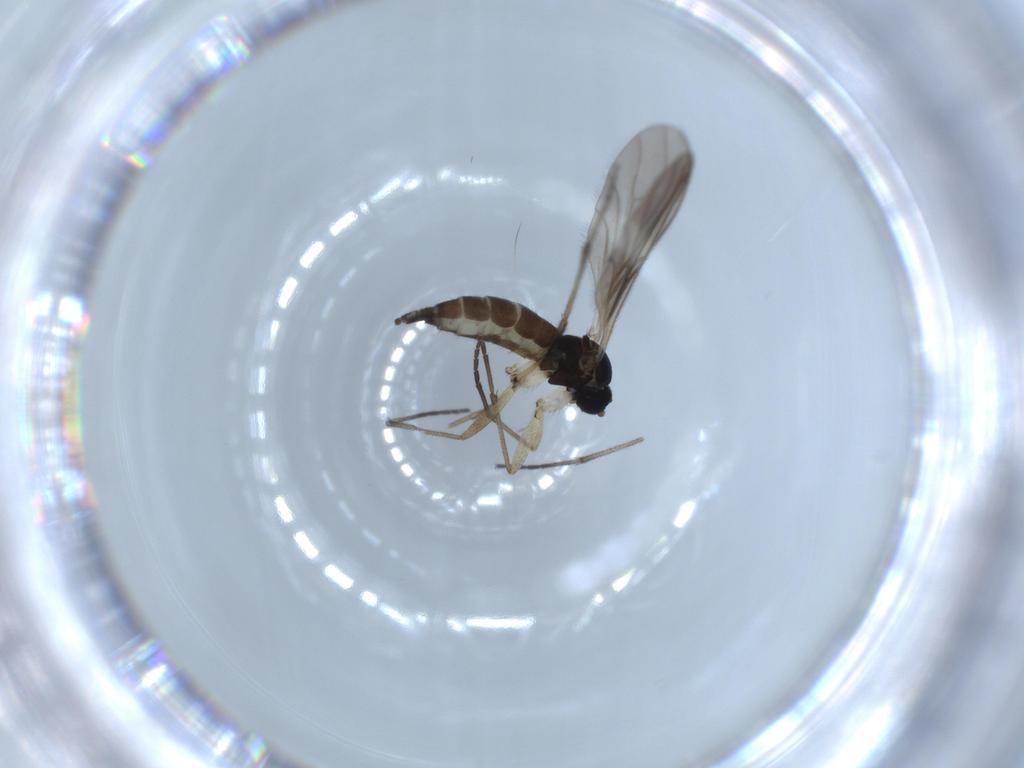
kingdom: Animalia
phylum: Arthropoda
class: Insecta
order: Diptera
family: Sciaridae
